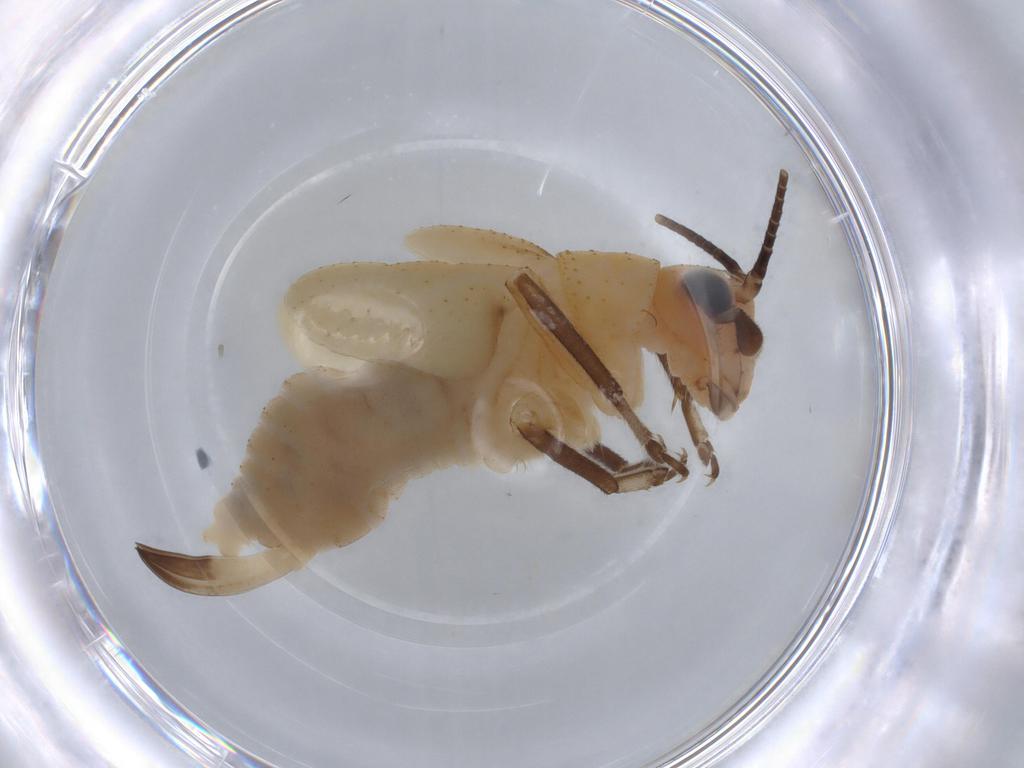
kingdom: Animalia
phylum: Arthropoda
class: Insecta
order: Orthoptera
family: Trigonidiidae
